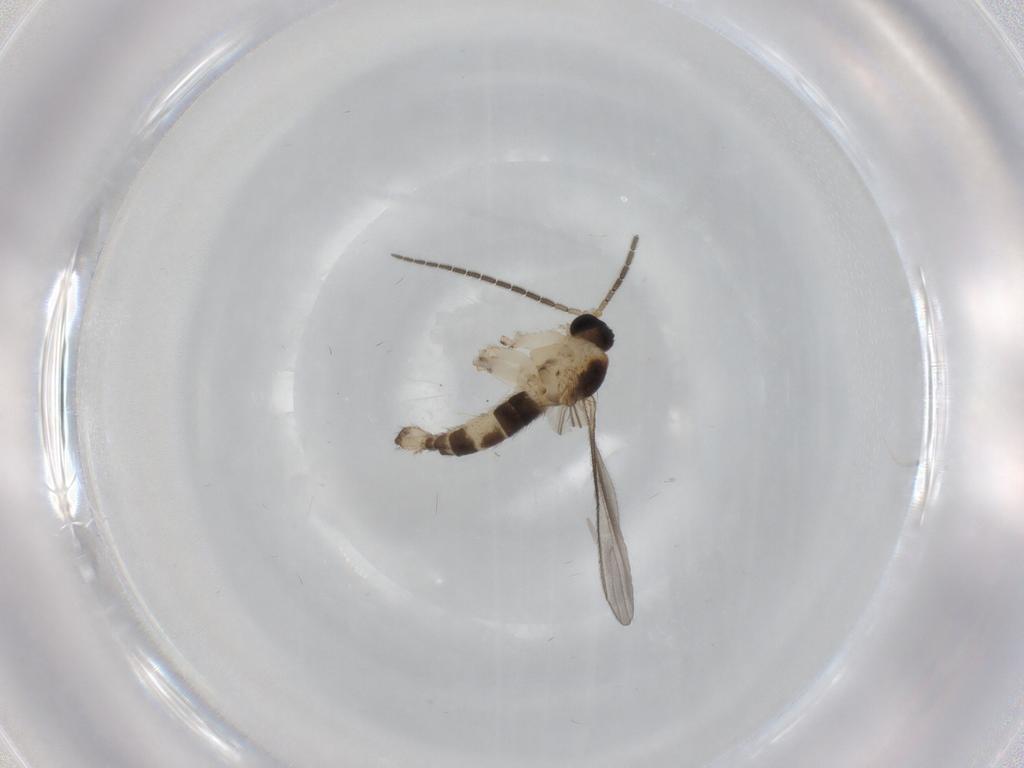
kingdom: Animalia
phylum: Arthropoda
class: Insecta
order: Diptera
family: Sciaridae
